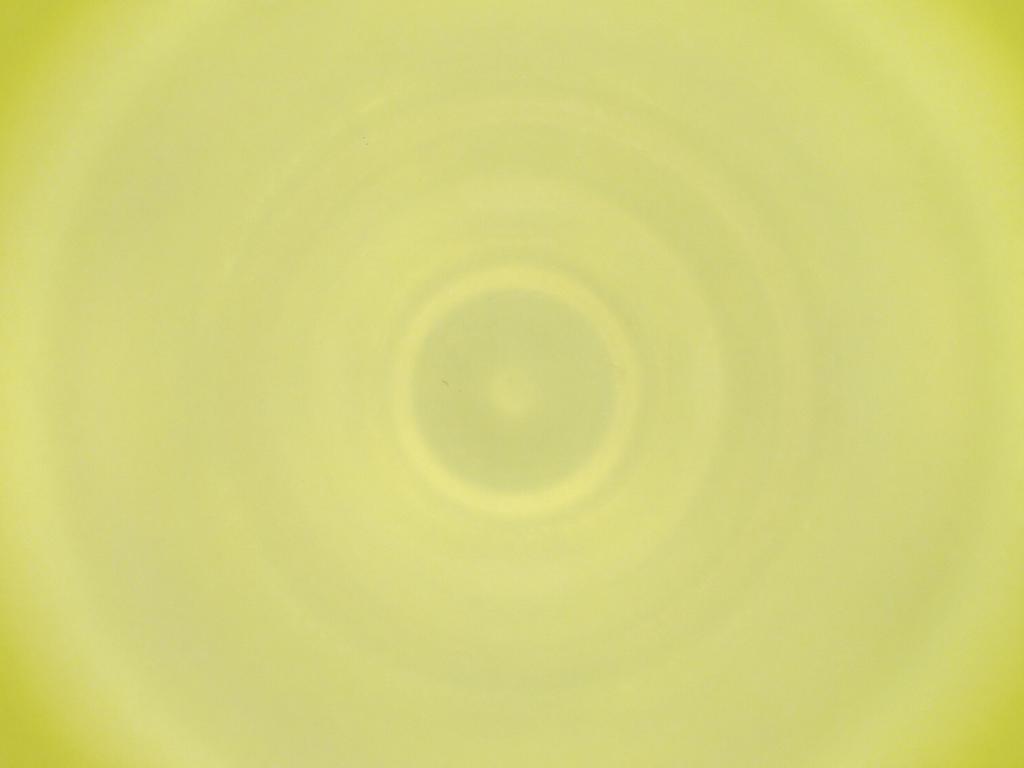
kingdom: Animalia
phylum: Arthropoda
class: Insecta
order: Diptera
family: Cecidomyiidae
